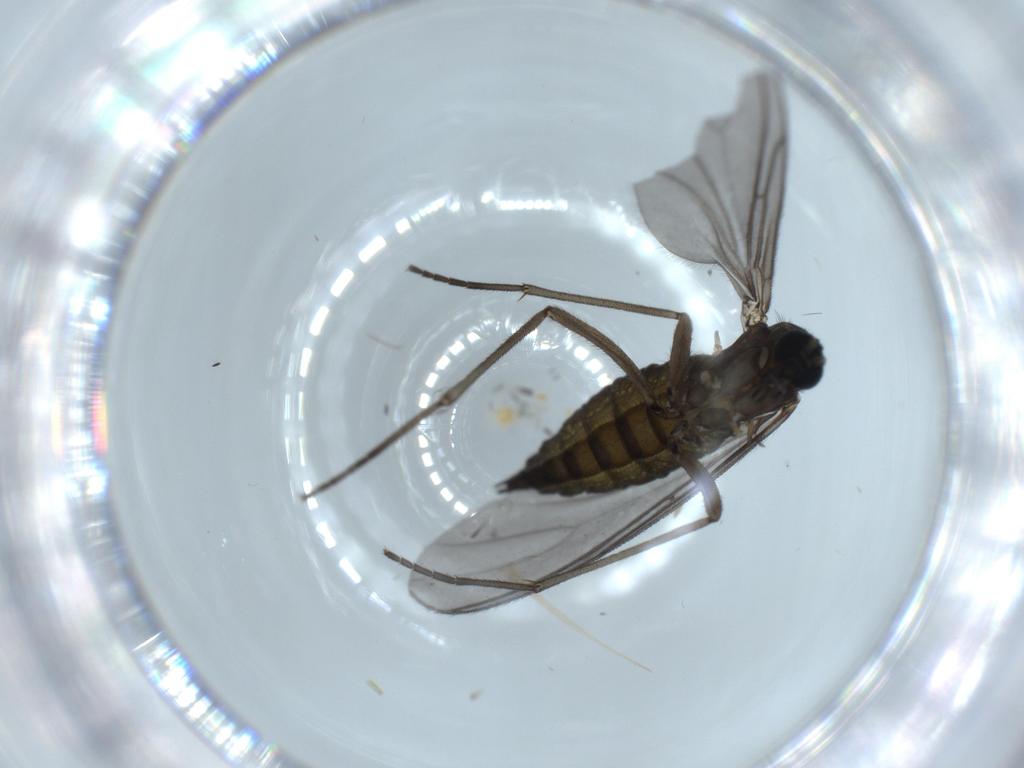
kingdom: Animalia
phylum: Arthropoda
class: Insecta
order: Diptera
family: Sciaridae
